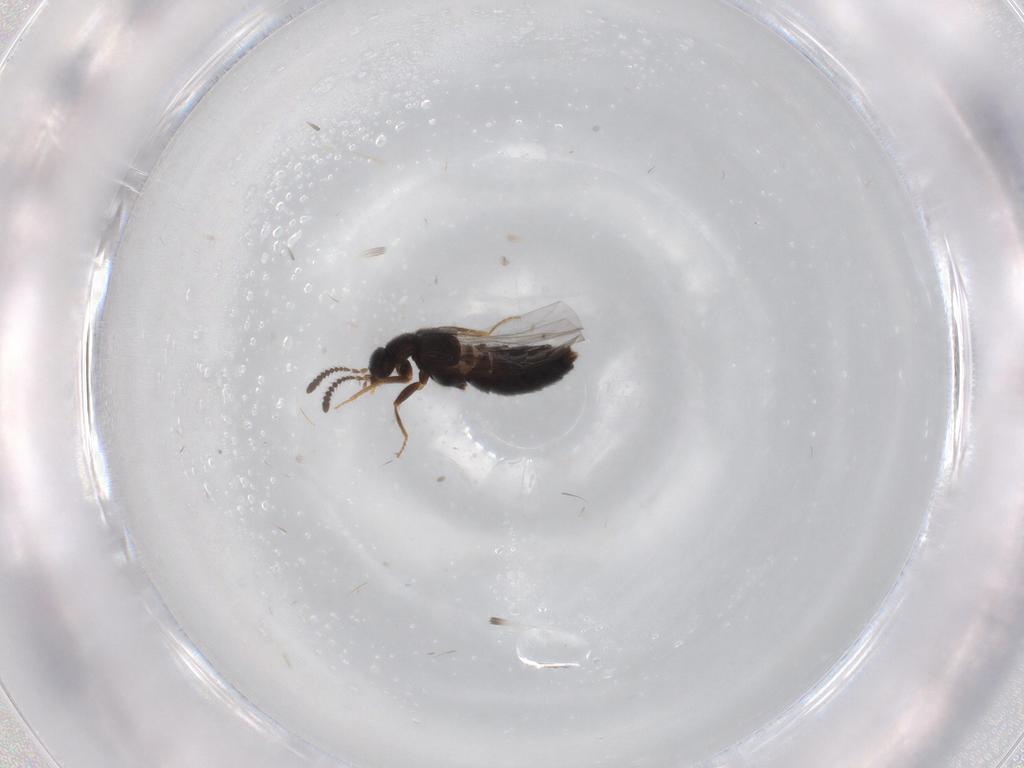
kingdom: Animalia
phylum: Arthropoda
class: Insecta
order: Coleoptera
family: Staphylinidae
